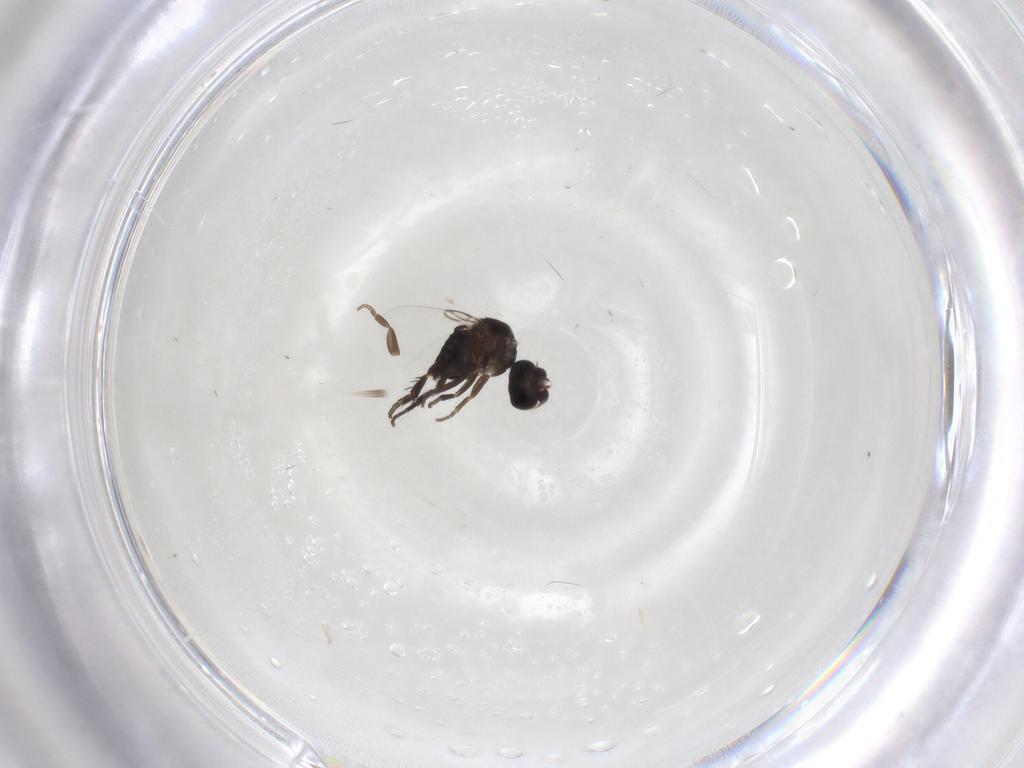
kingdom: Animalia
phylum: Arthropoda
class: Insecta
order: Diptera
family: Phoridae
